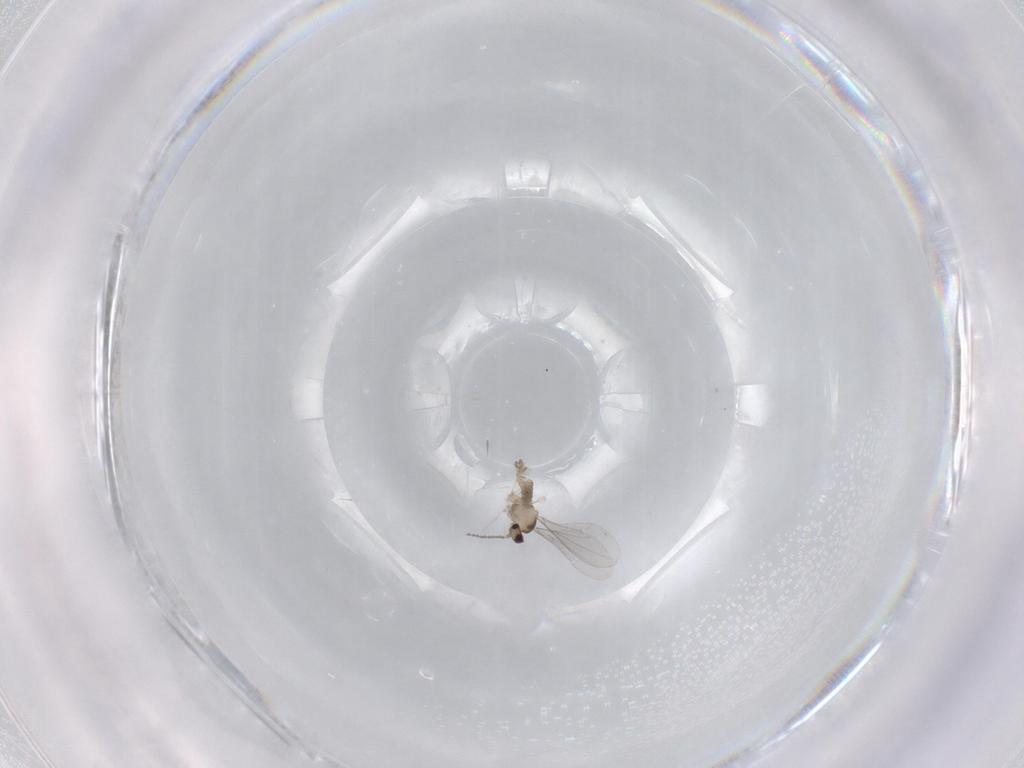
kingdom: Animalia
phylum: Arthropoda
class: Insecta
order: Diptera
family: Cecidomyiidae
